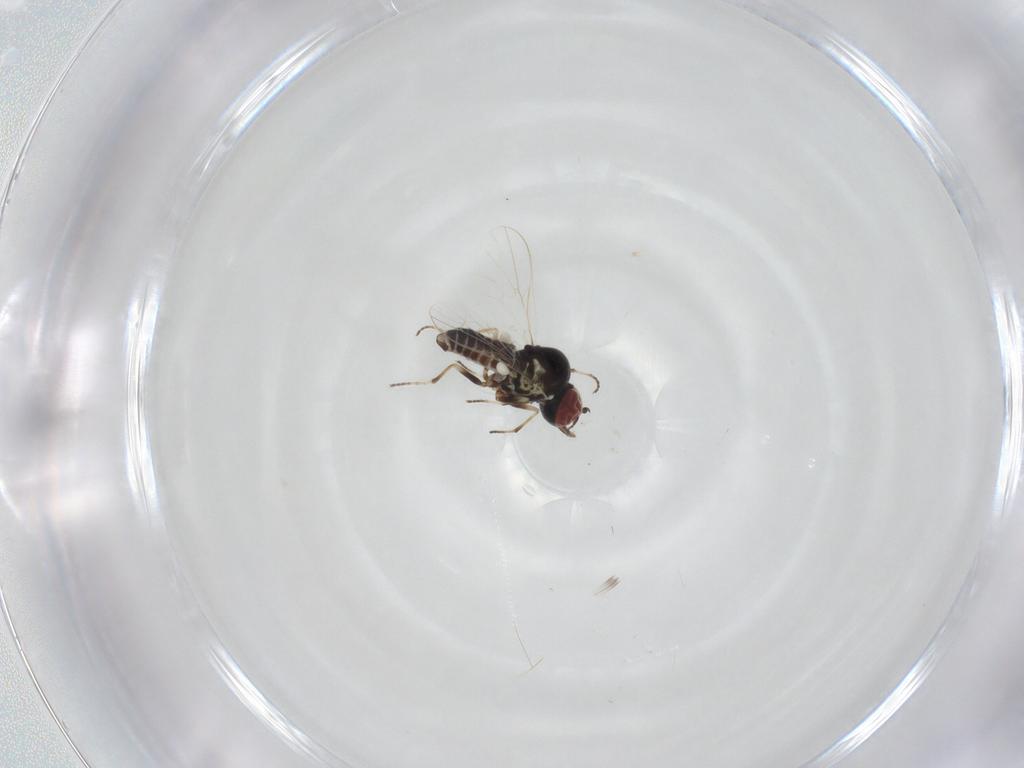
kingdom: Animalia
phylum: Arthropoda
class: Insecta
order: Diptera
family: Mythicomyiidae
